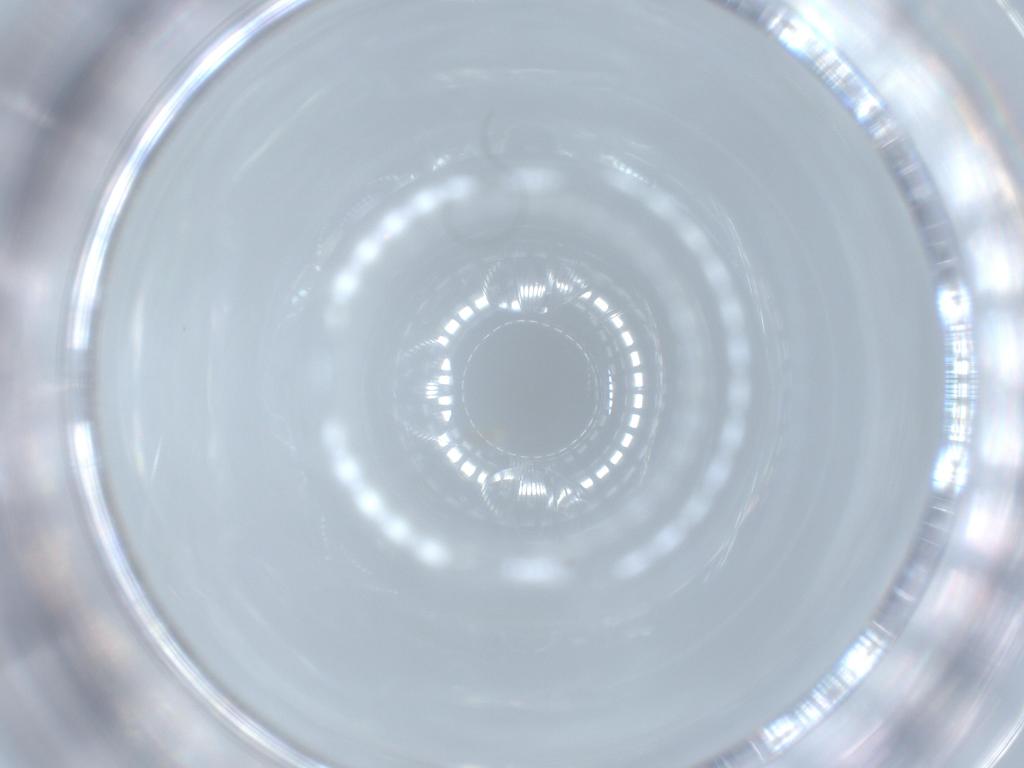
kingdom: Animalia
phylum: Arthropoda
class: Insecta
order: Diptera
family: Stratiomyidae
